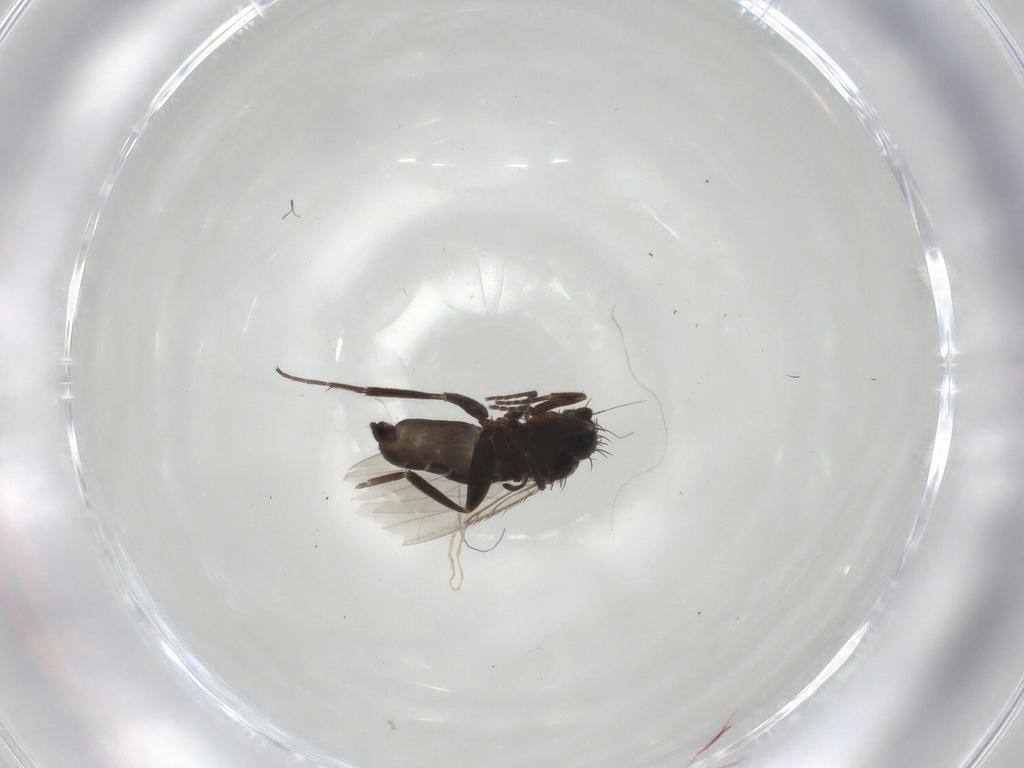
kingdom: Animalia
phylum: Arthropoda
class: Insecta
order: Diptera
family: Phoridae
